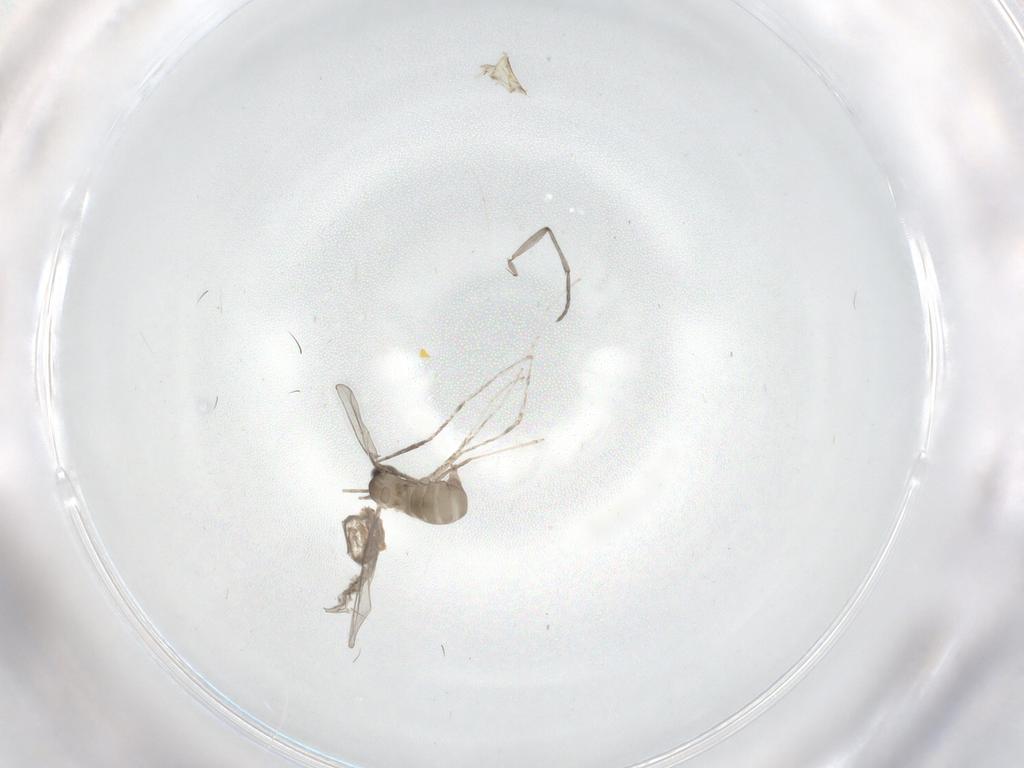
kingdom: Animalia
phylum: Arthropoda
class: Insecta
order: Diptera
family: Cecidomyiidae
